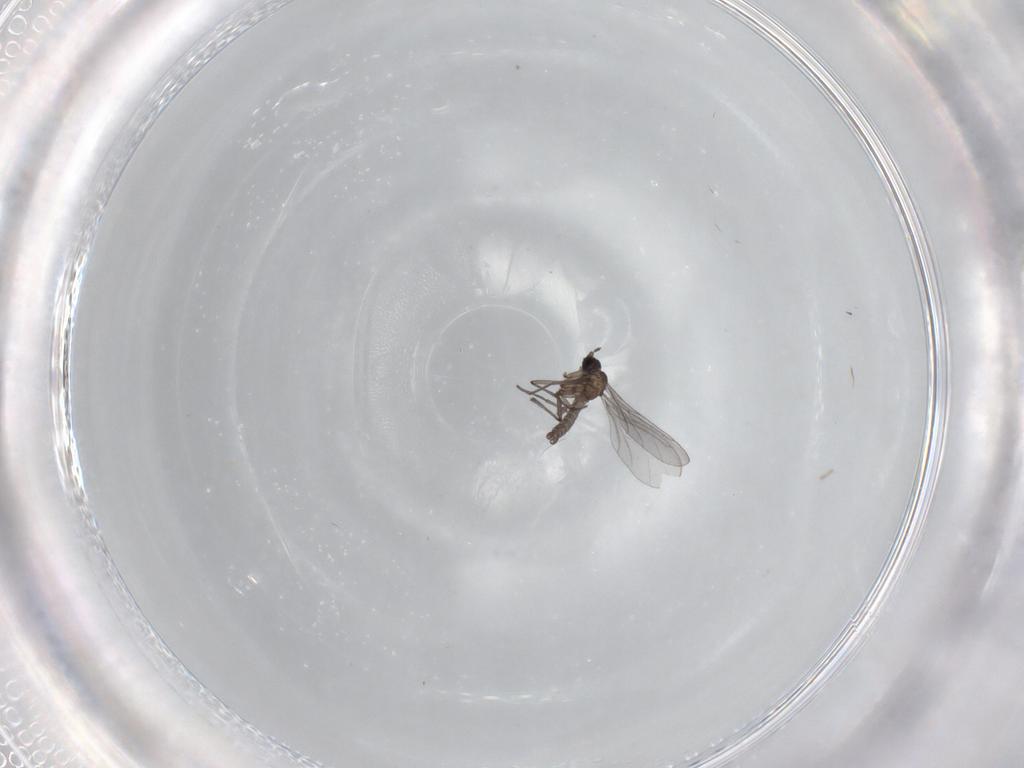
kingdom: Animalia
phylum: Arthropoda
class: Insecta
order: Diptera
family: Sciaridae
